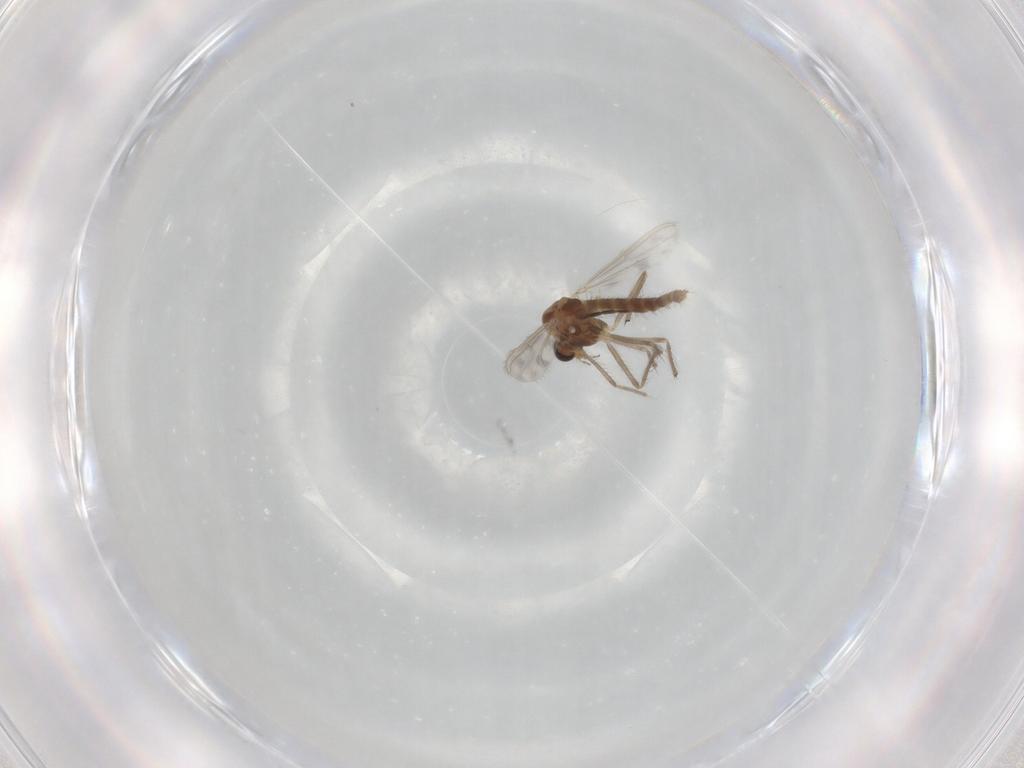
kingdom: Animalia
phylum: Arthropoda
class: Insecta
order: Diptera
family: Chironomidae
